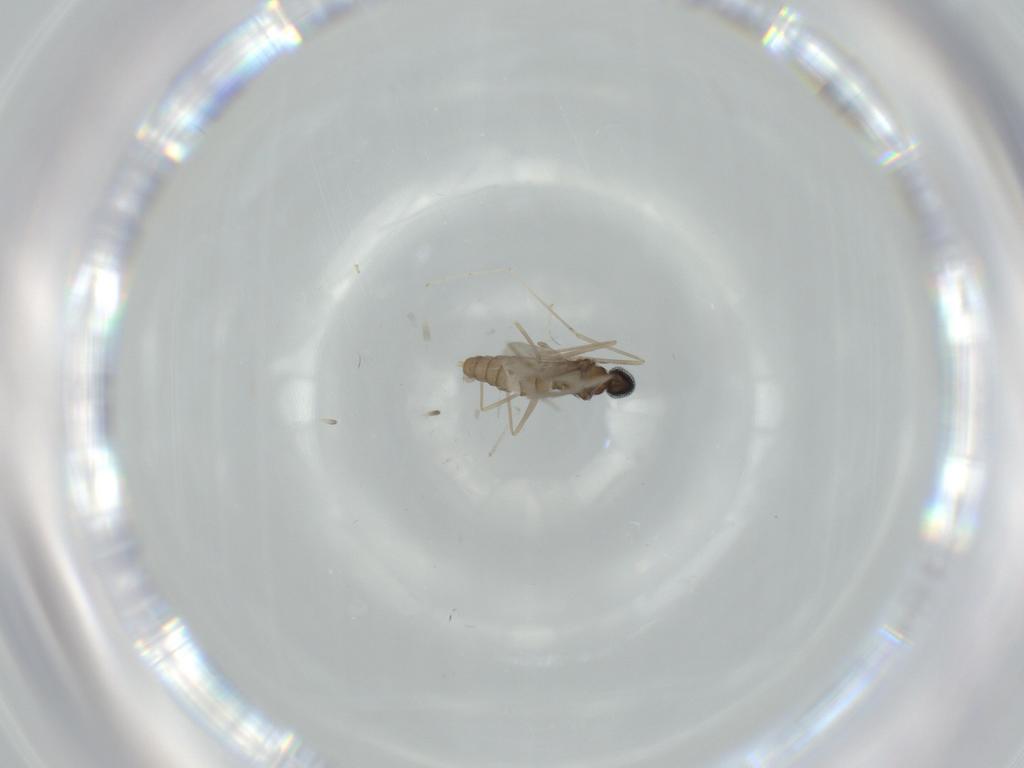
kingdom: Animalia
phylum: Arthropoda
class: Insecta
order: Diptera
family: Cecidomyiidae
